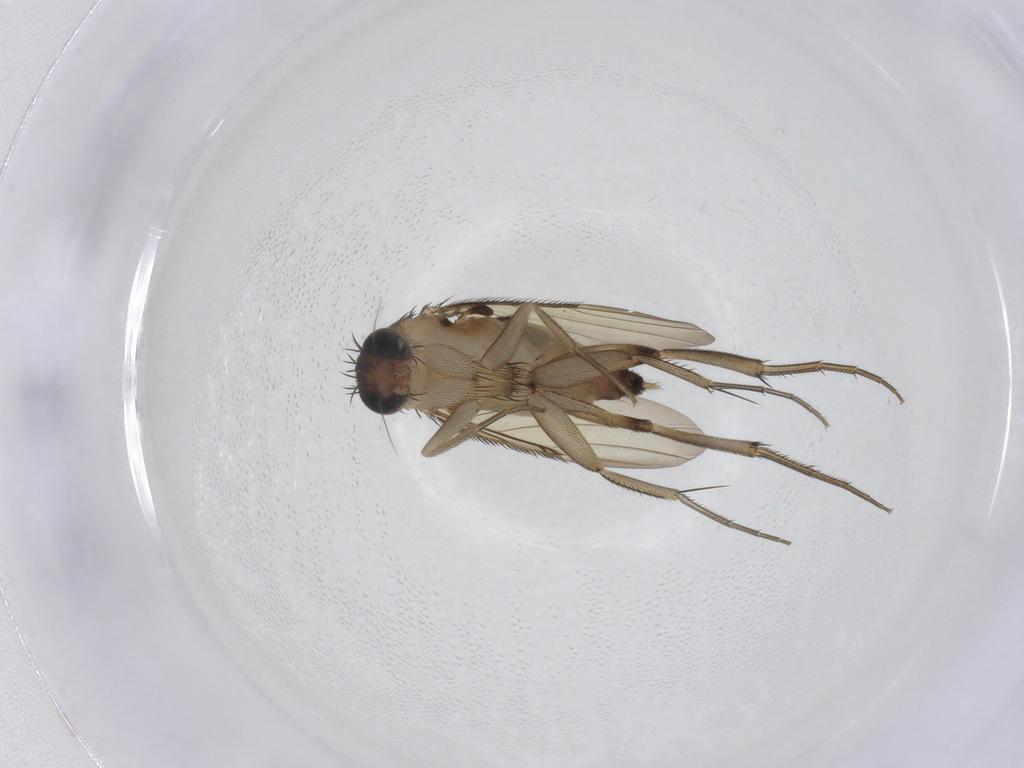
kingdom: Animalia
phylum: Arthropoda
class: Insecta
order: Diptera
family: Phoridae
